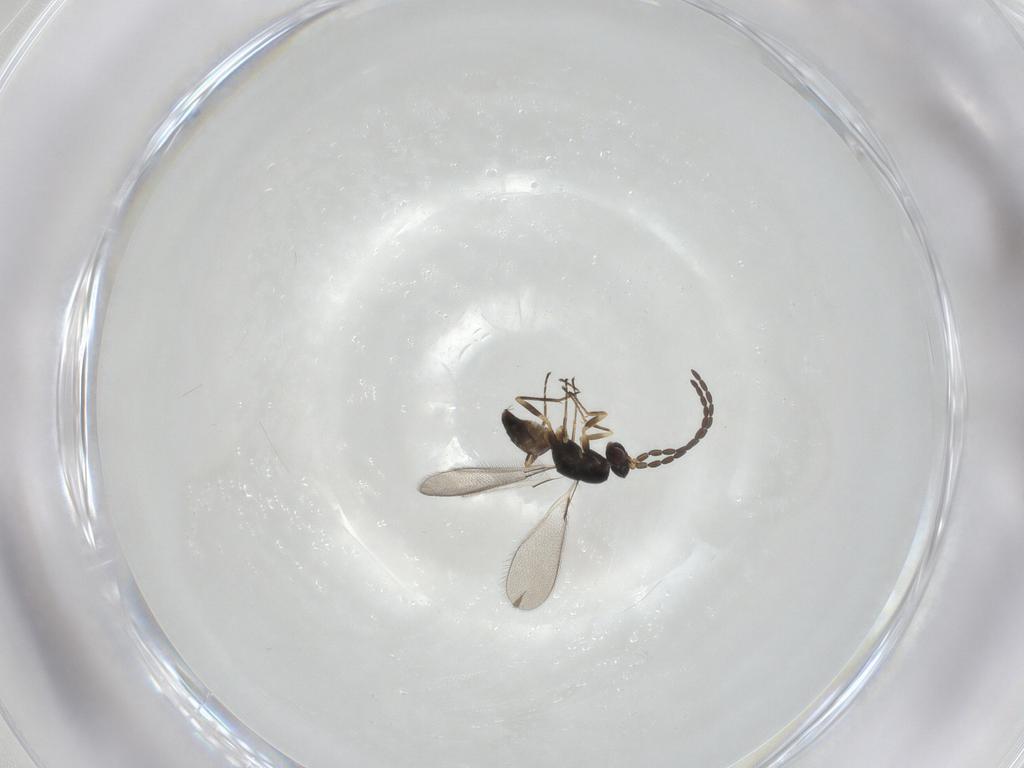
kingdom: Animalia
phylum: Arthropoda
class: Insecta
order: Hymenoptera
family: Mymaridae
